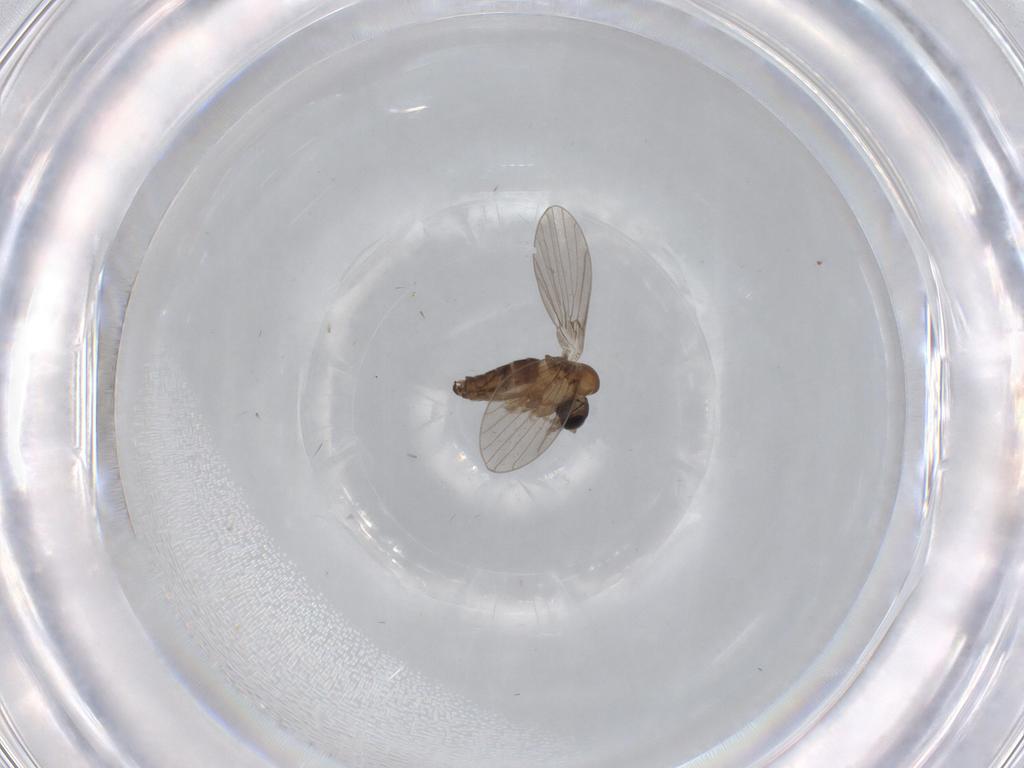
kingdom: Animalia
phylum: Arthropoda
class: Insecta
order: Diptera
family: Cecidomyiidae
